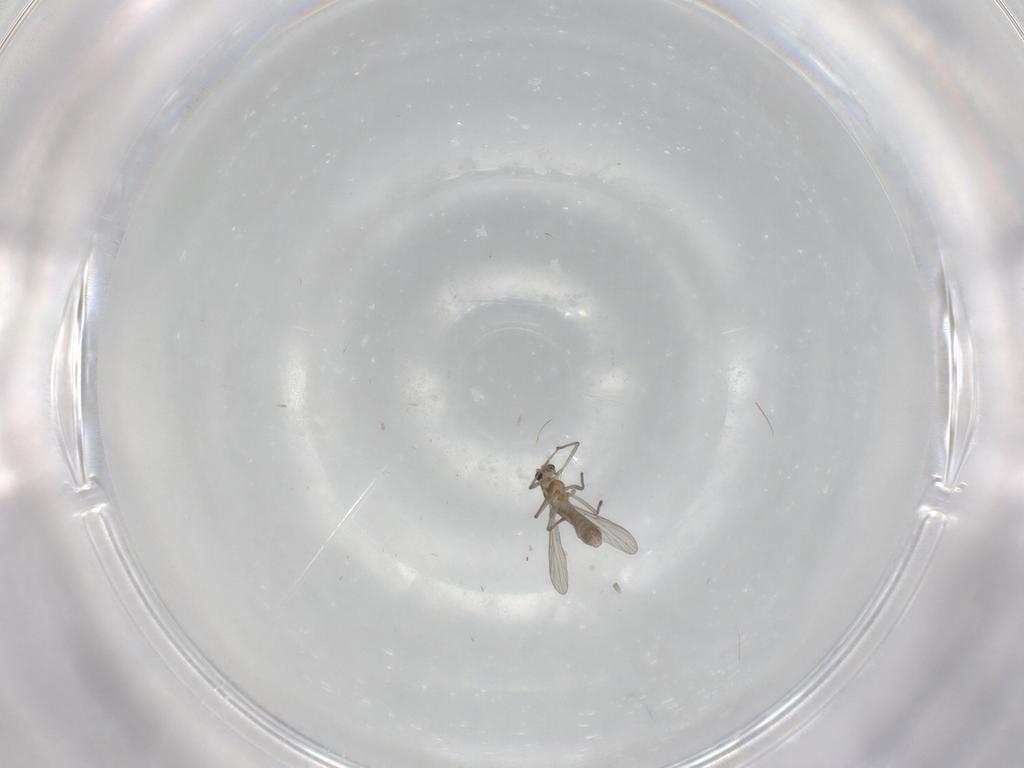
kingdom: Animalia
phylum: Arthropoda
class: Insecta
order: Diptera
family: Chironomidae
